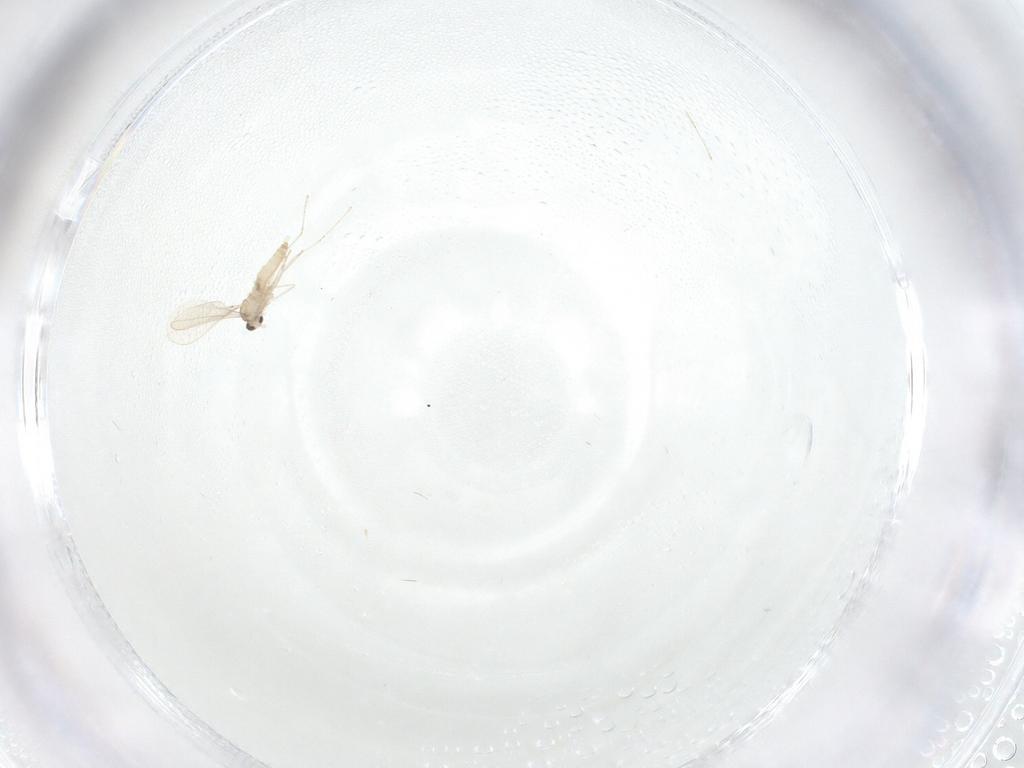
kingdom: Animalia
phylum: Arthropoda
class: Insecta
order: Diptera
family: Cecidomyiidae
